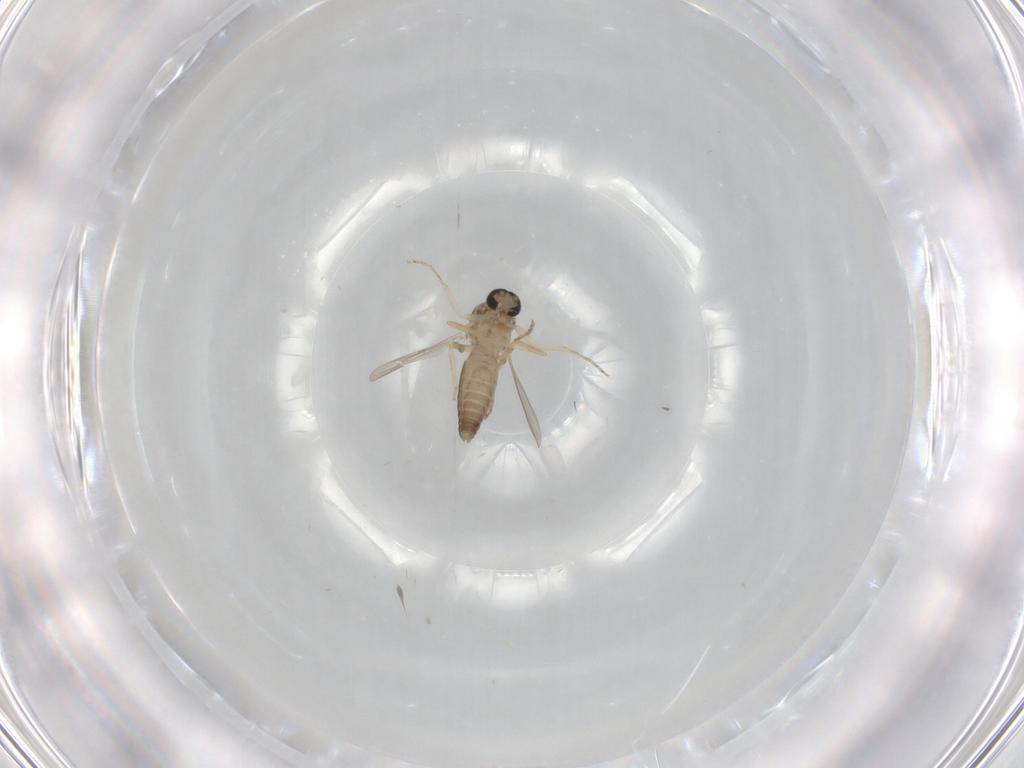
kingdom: Animalia
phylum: Arthropoda
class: Insecta
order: Diptera
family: Ceratopogonidae
